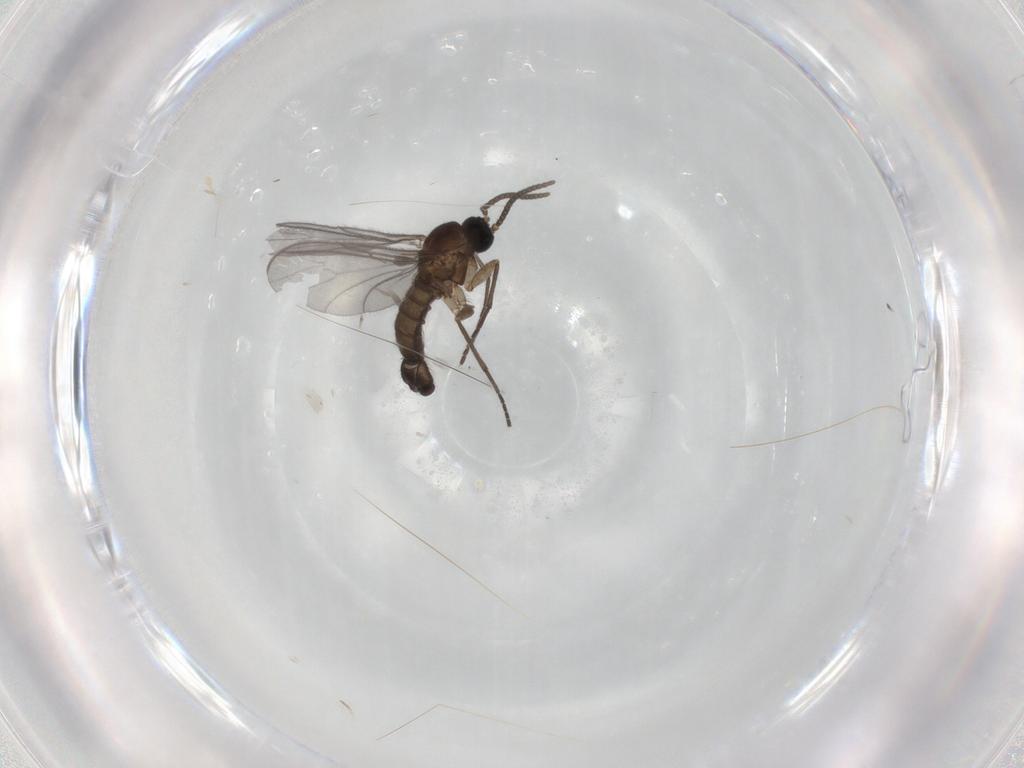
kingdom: Animalia
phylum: Arthropoda
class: Insecta
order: Diptera
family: Sciaridae
